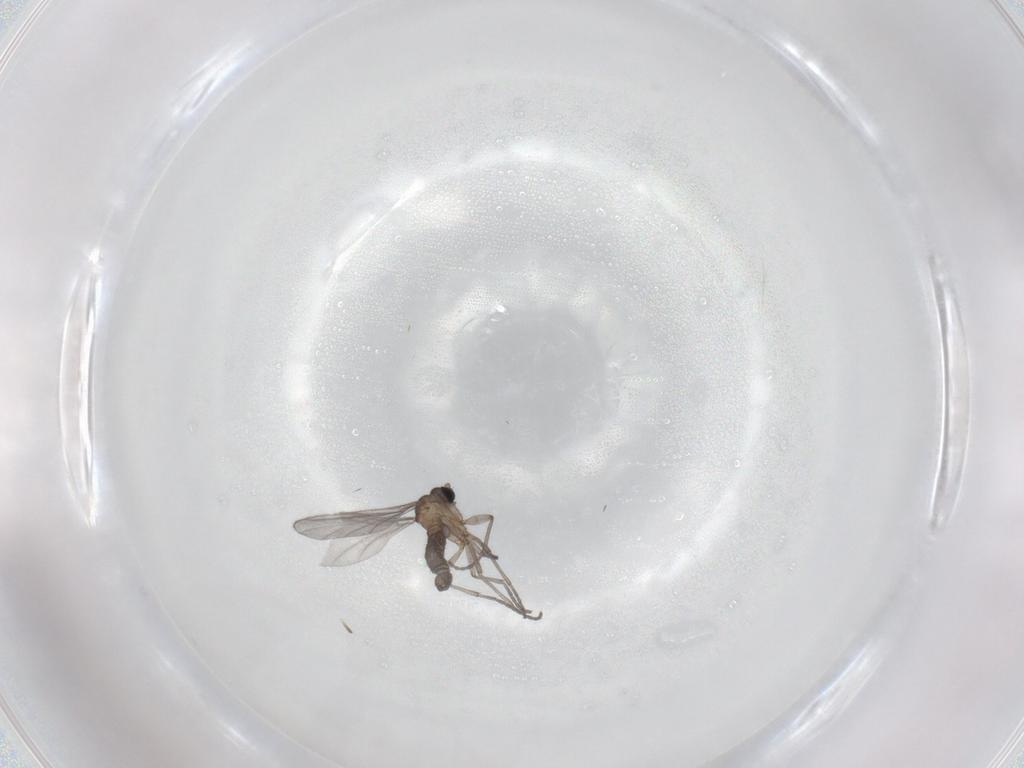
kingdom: Animalia
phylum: Arthropoda
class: Insecta
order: Diptera
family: Sciaridae
